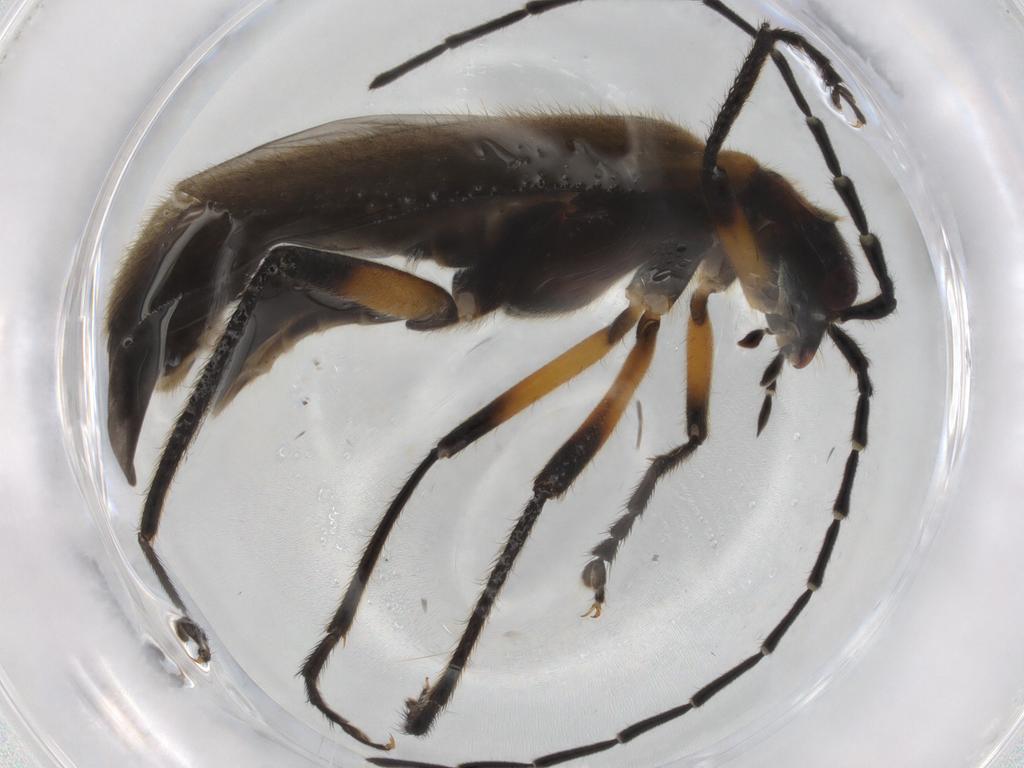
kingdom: Animalia
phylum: Arthropoda
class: Insecta
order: Coleoptera
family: Cantharidae
